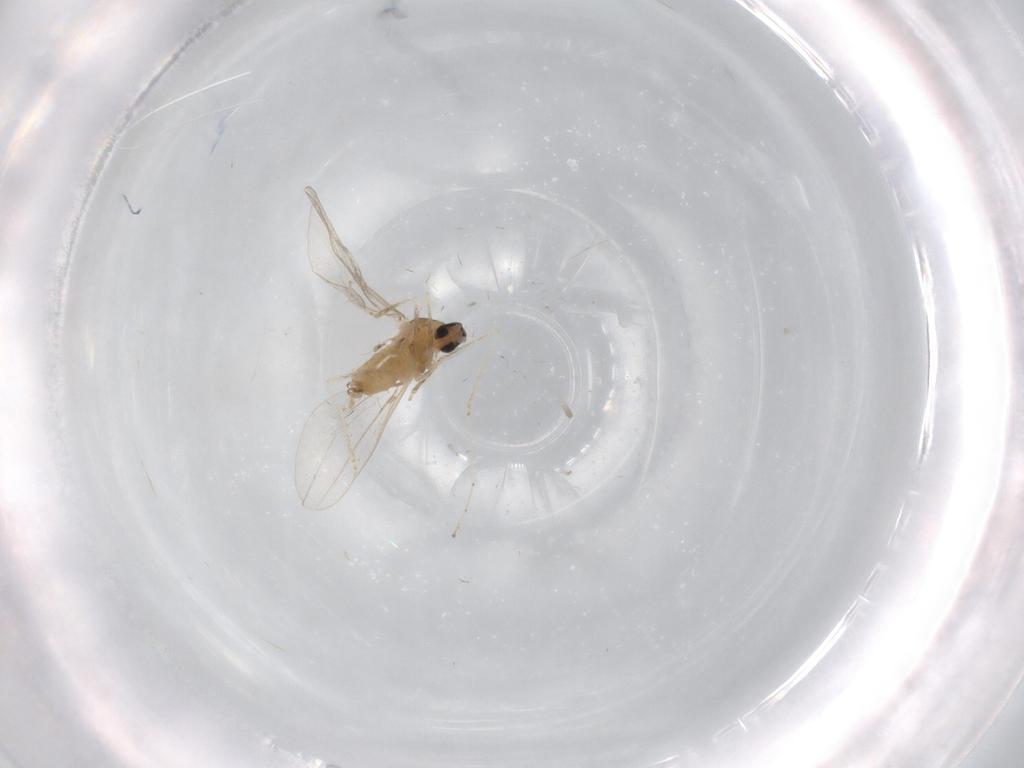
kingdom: Animalia
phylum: Arthropoda
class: Insecta
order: Diptera
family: Cecidomyiidae
